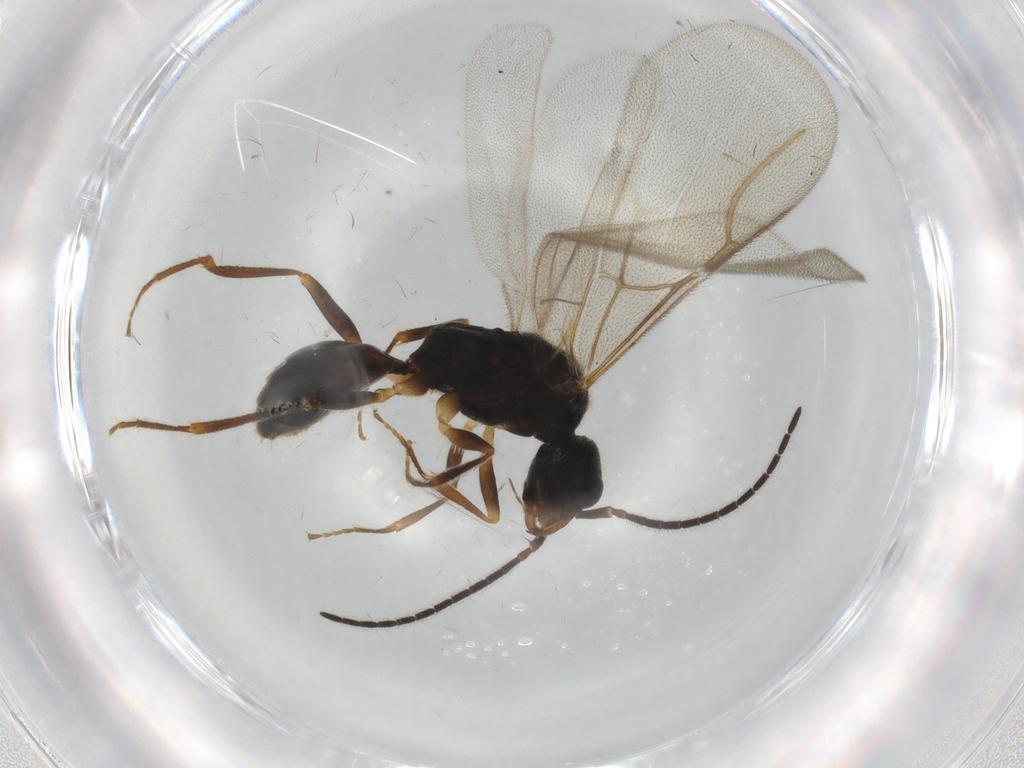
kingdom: Animalia
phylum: Arthropoda
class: Insecta
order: Hymenoptera
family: Bethylidae
